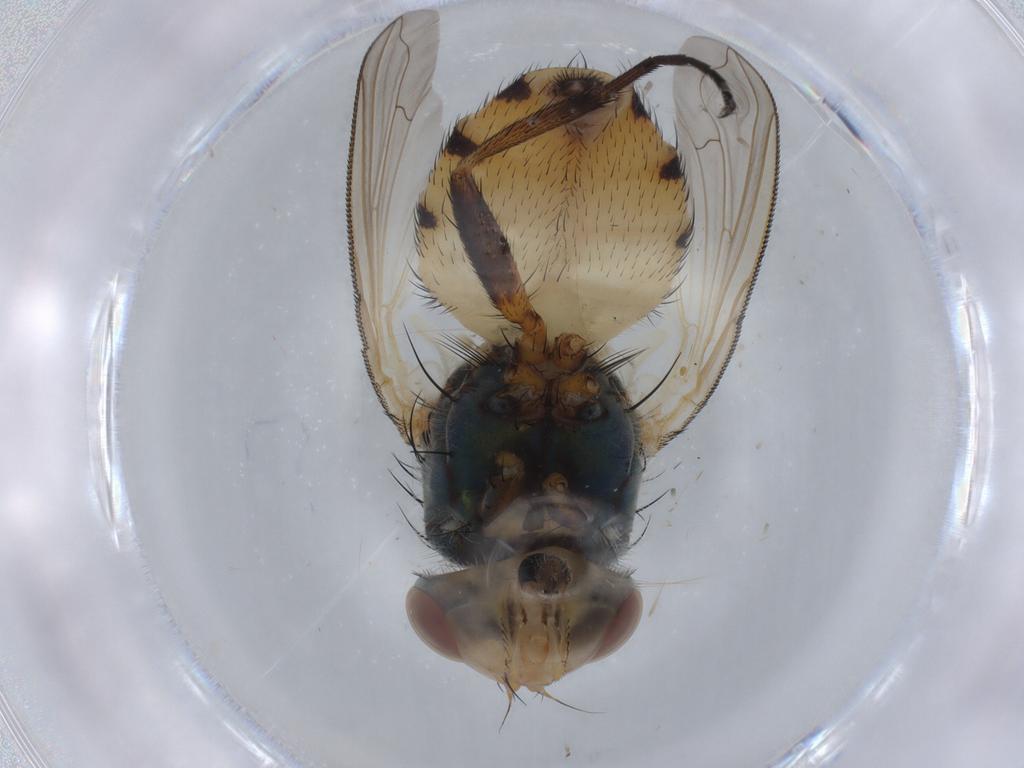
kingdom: Animalia
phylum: Arthropoda
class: Insecta
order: Diptera
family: Calliphoridae
